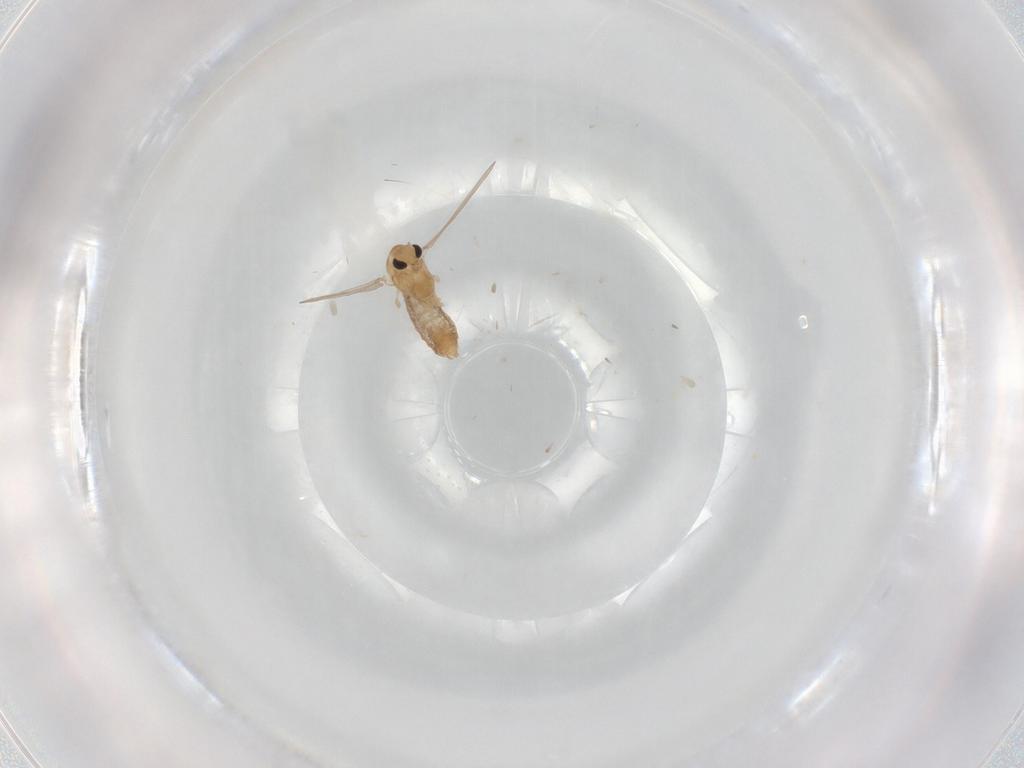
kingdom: Animalia
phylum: Arthropoda
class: Insecta
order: Diptera
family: Chironomidae
